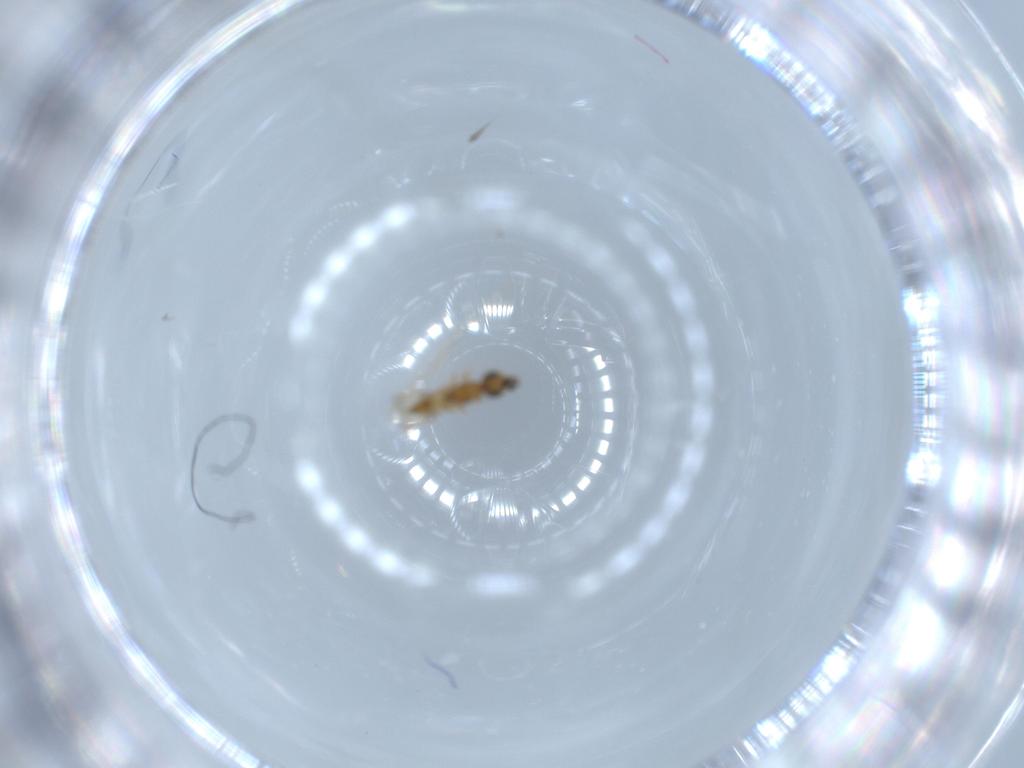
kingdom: Animalia
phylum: Arthropoda
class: Insecta
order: Hymenoptera
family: Ceraphronidae
